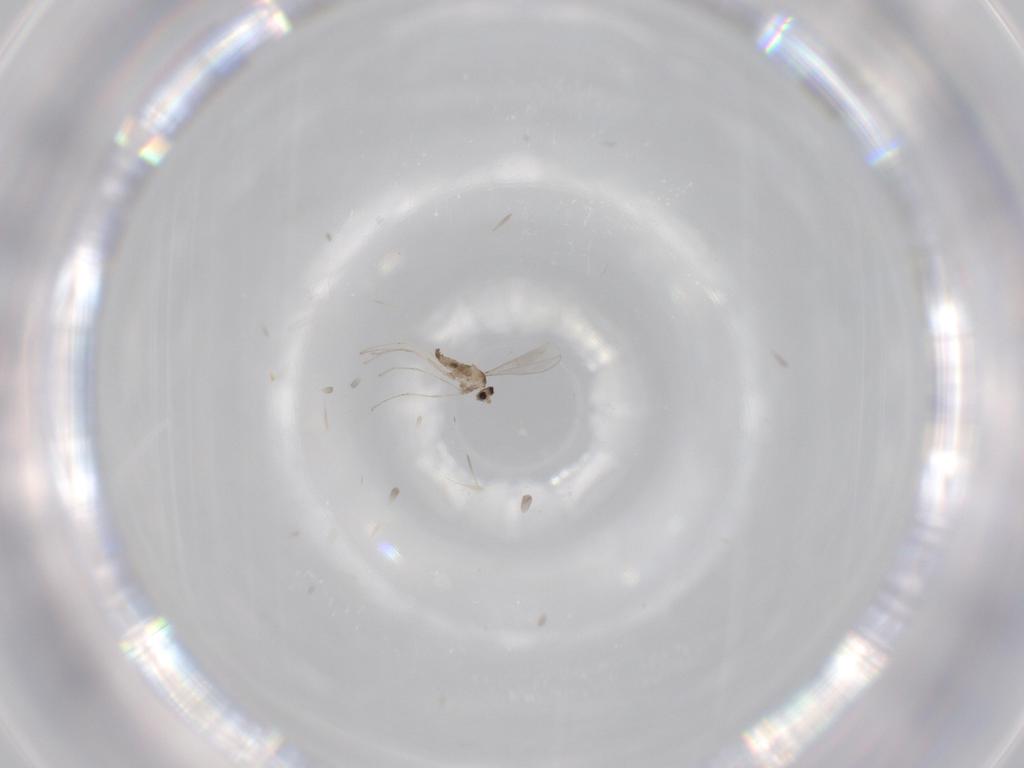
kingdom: Animalia
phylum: Arthropoda
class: Insecta
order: Diptera
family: Cecidomyiidae
